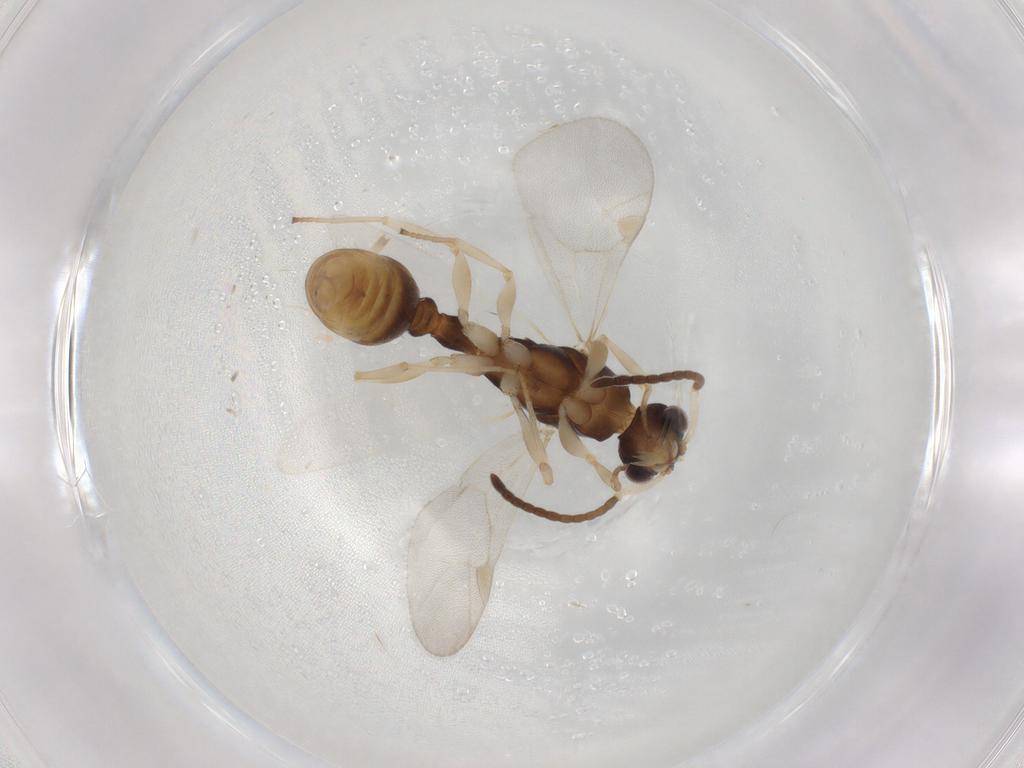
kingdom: Animalia
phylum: Arthropoda
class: Insecta
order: Hymenoptera
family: Formicidae
